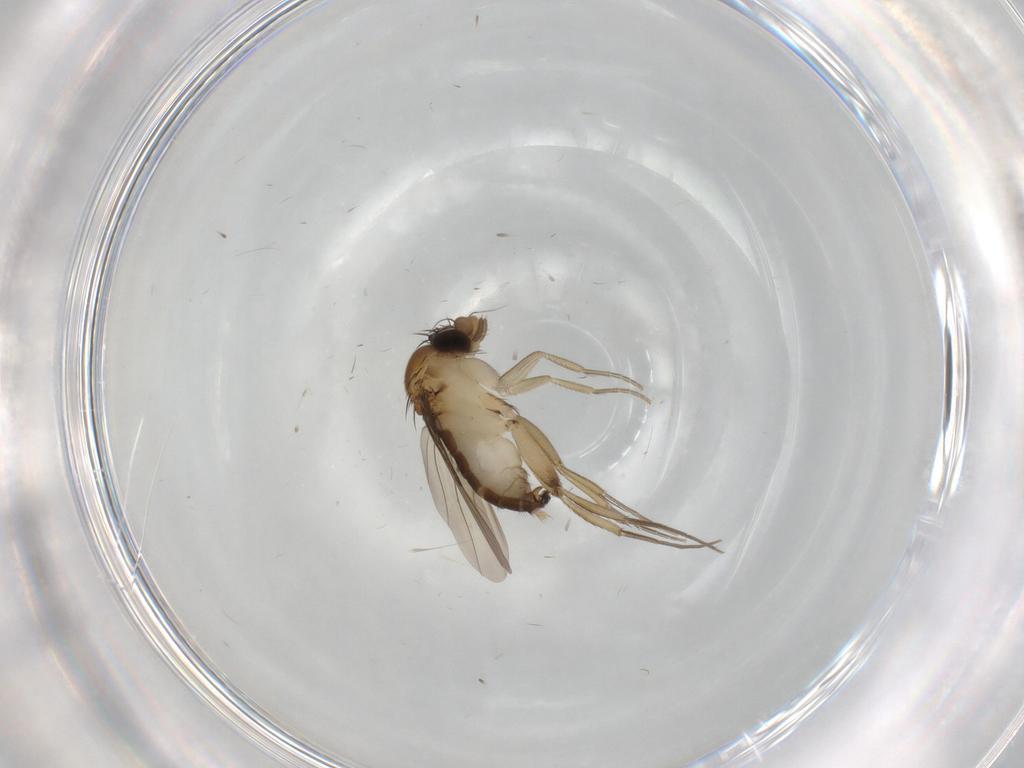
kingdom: Animalia
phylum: Arthropoda
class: Insecta
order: Diptera
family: Phoridae
